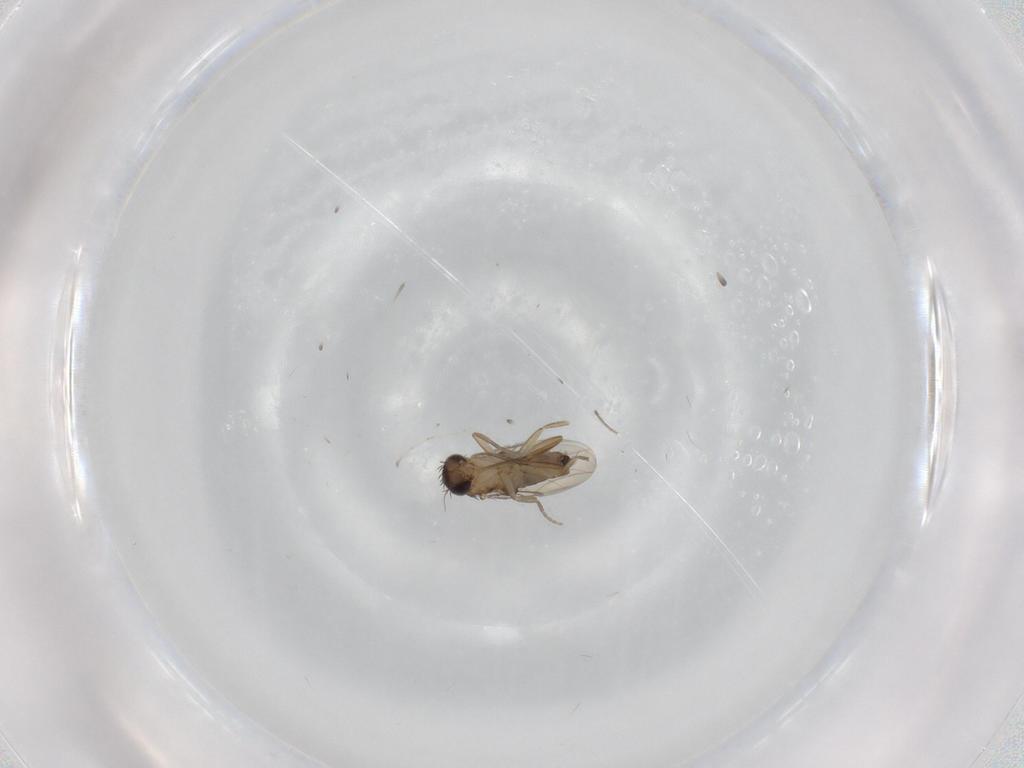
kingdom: Animalia
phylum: Arthropoda
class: Insecta
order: Diptera
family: Phoridae
